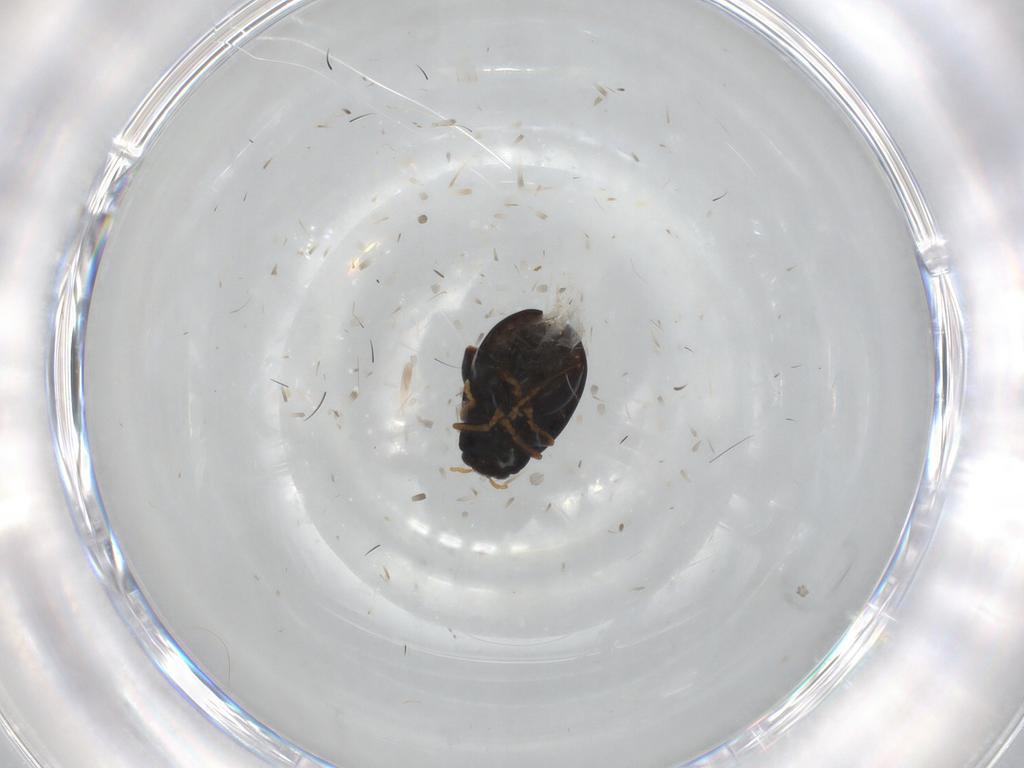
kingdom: Animalia
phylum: Arthropoda
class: Insecta
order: Coleoptera
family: Chrysomelidae
